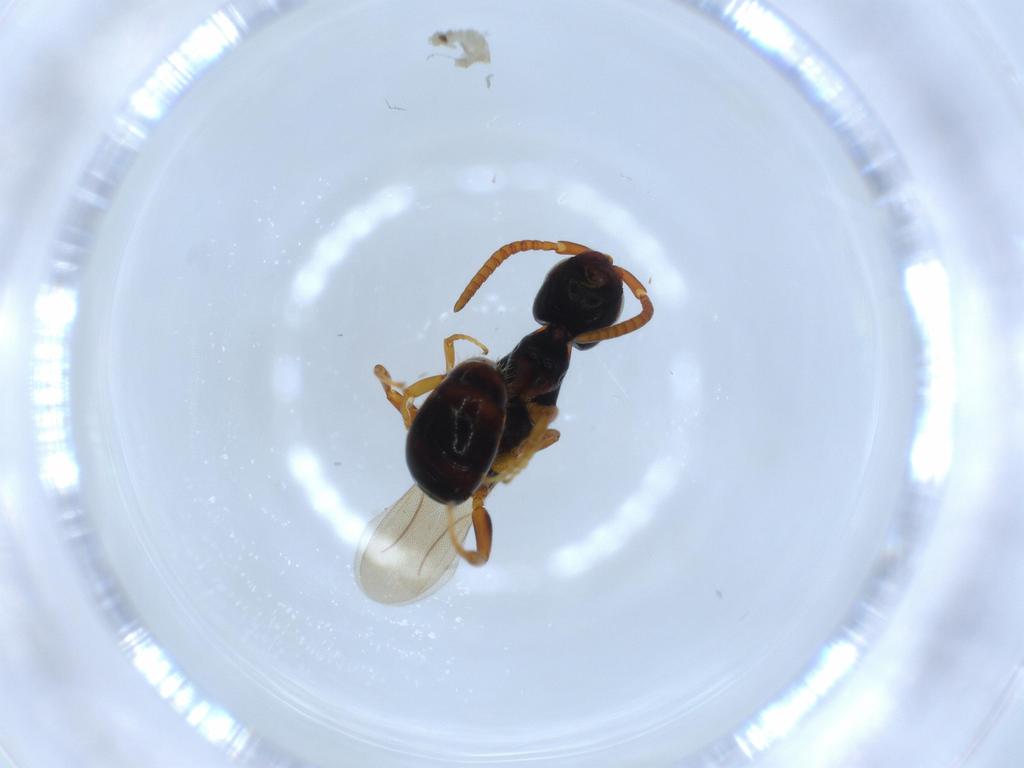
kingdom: Animalia
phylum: Arthropoda
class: Insecta
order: Hymenoptera
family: Bethylidae
